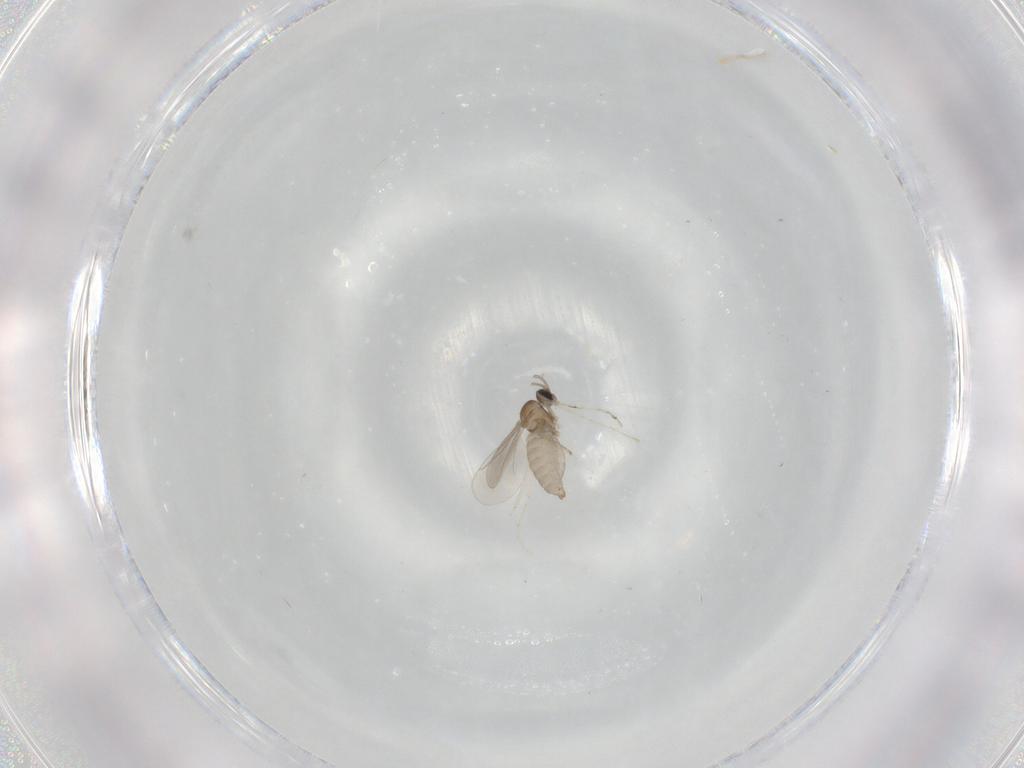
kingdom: Animalia
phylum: Arthropoda
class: Insecta
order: Diptera
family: Cecidomyiidae
